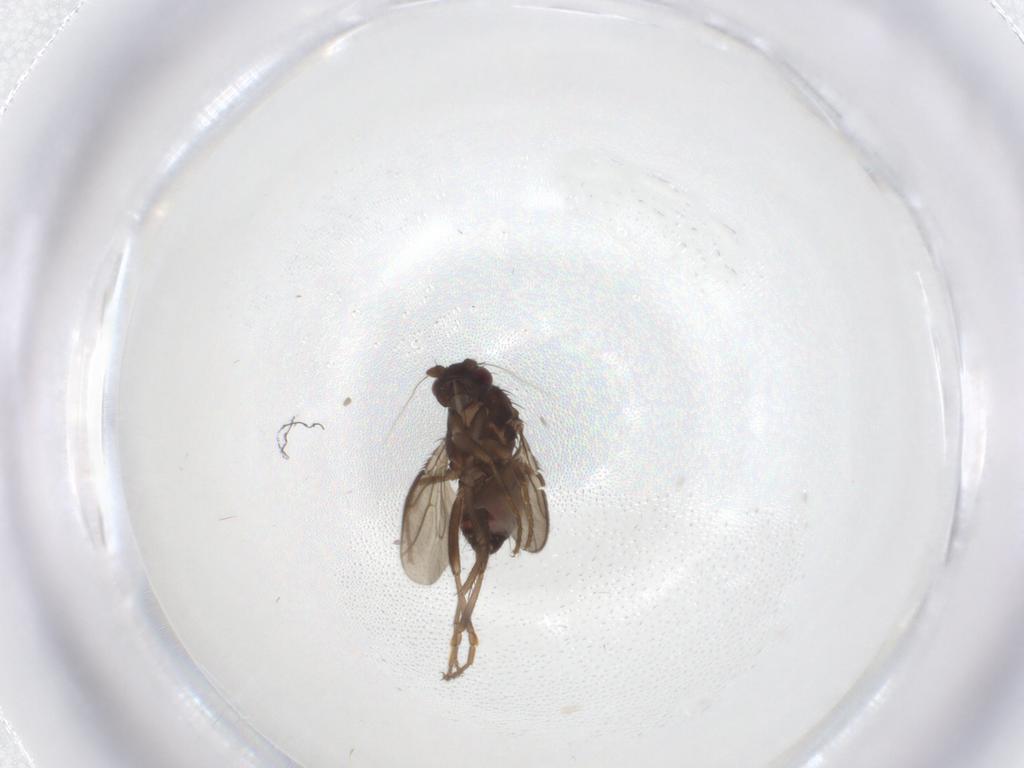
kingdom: Animalia
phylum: Arthropoda
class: Insecta
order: Diptera
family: Sphaeroceridae
